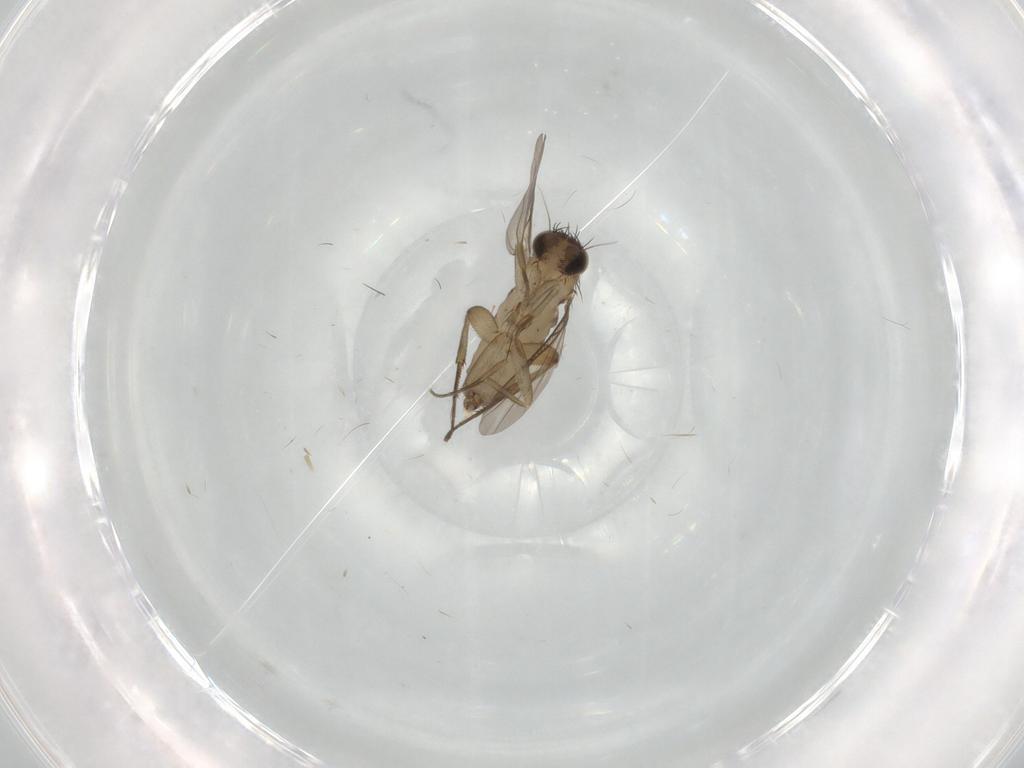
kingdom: Animalia
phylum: Arthropoda
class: Insecta
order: Diptera
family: Phoridae
